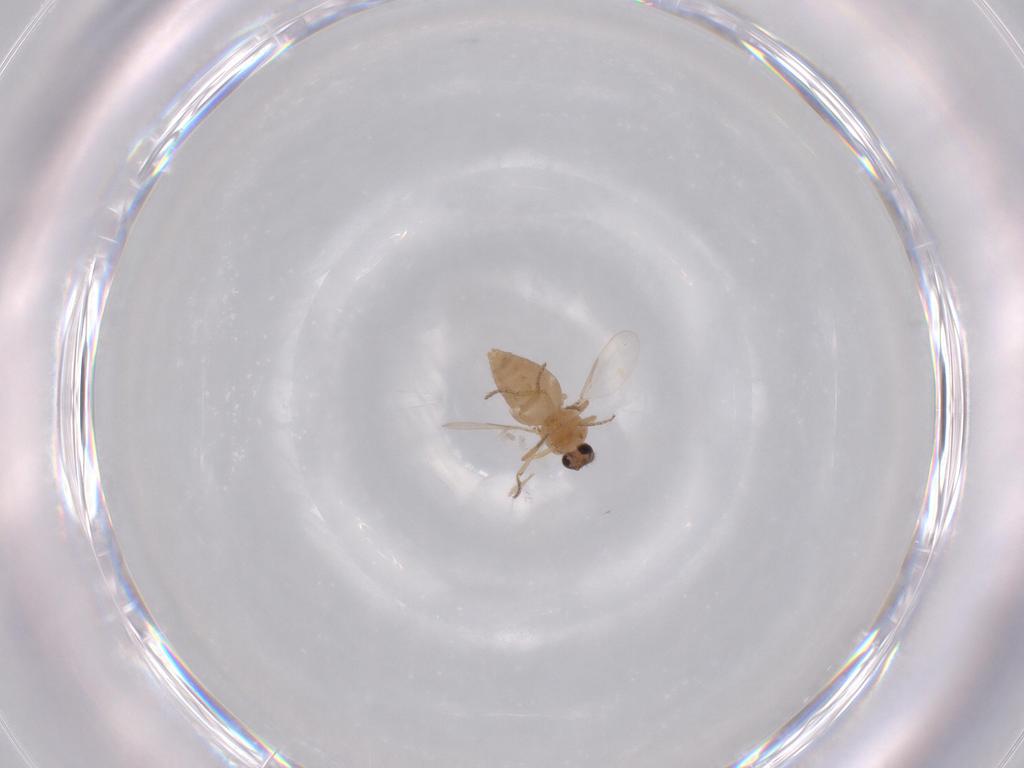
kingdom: Animalia
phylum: Arthropoda
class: Insecta
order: Diptera
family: Ceratopogonidae
